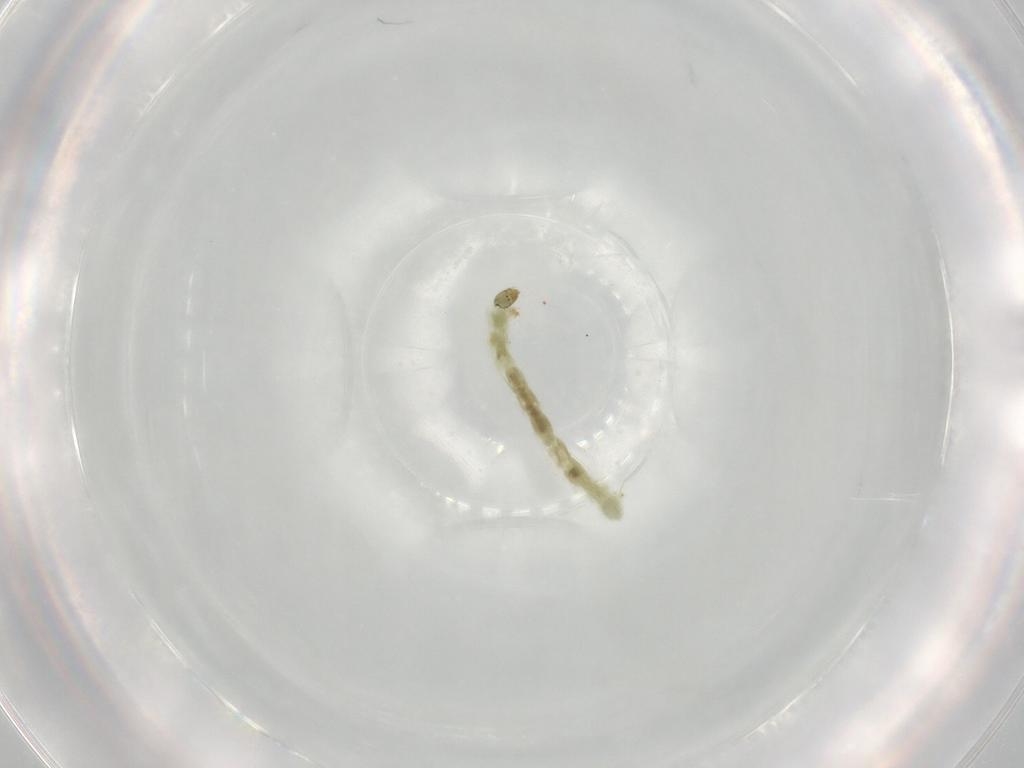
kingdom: Animalia
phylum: Arthropoda
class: Insecta
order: Diptera
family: Chironomidae
